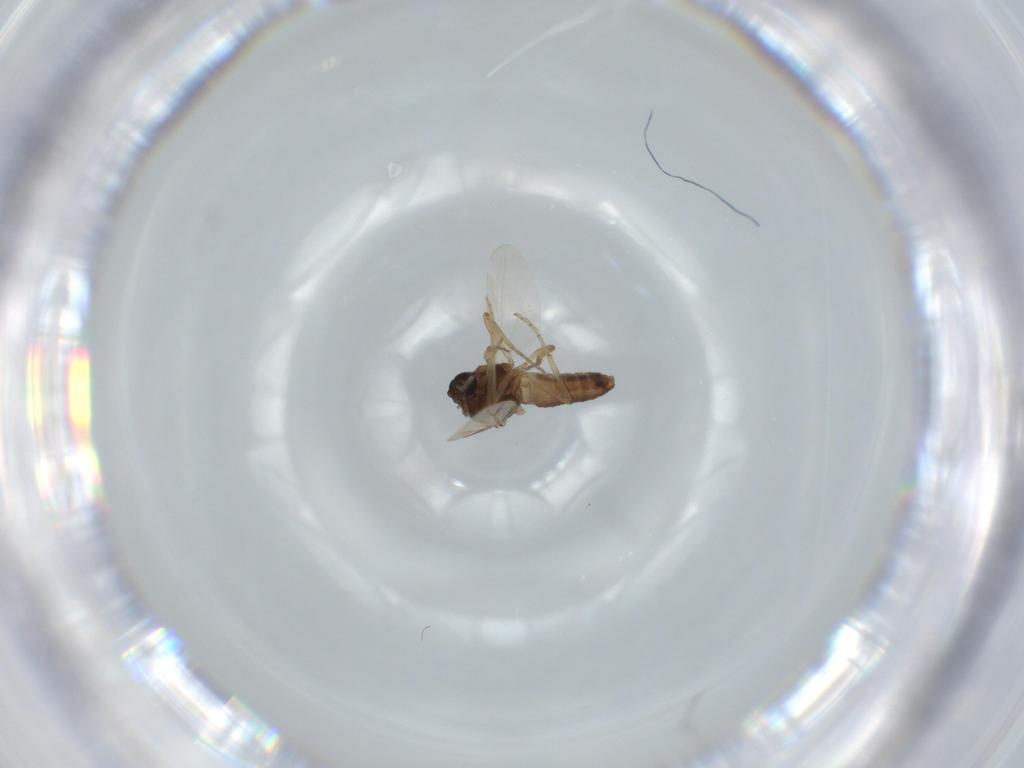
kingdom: Animalia
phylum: Arthropoda
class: Insecta
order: Diptera
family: Ceratopogonidae
